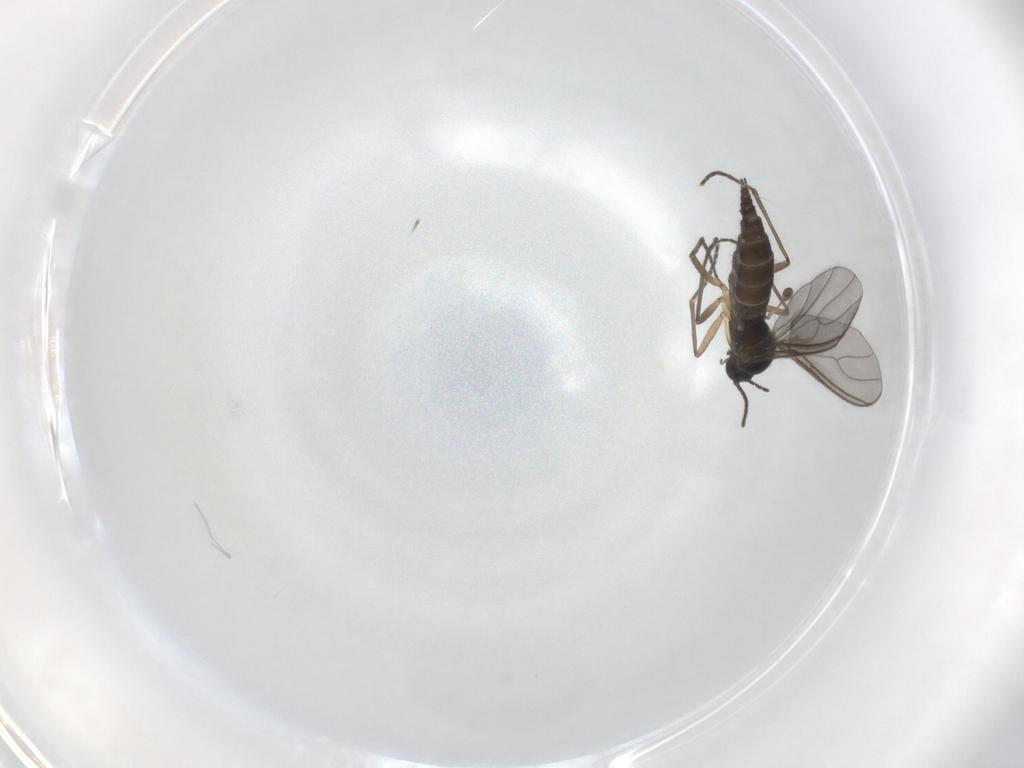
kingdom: Animalia
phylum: Arthropoda
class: Insecta
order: Diptera
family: Sciaridae
